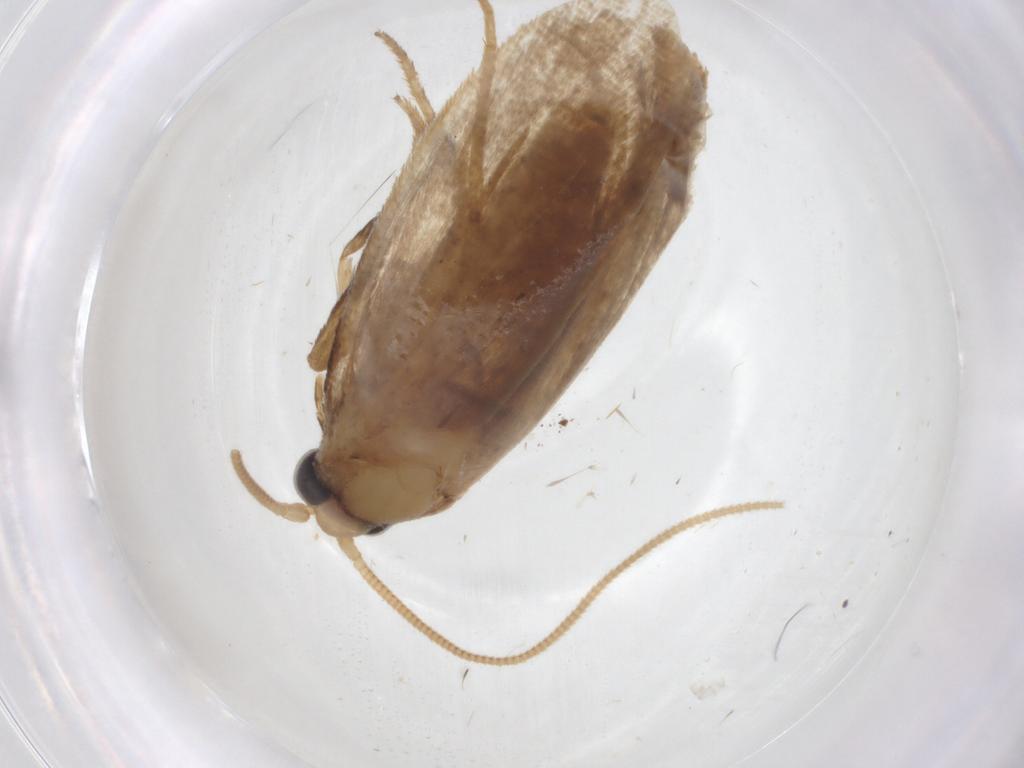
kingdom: Animalia
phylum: Arthropoda
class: Insecta
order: Lepidoptera
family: Tineidae
